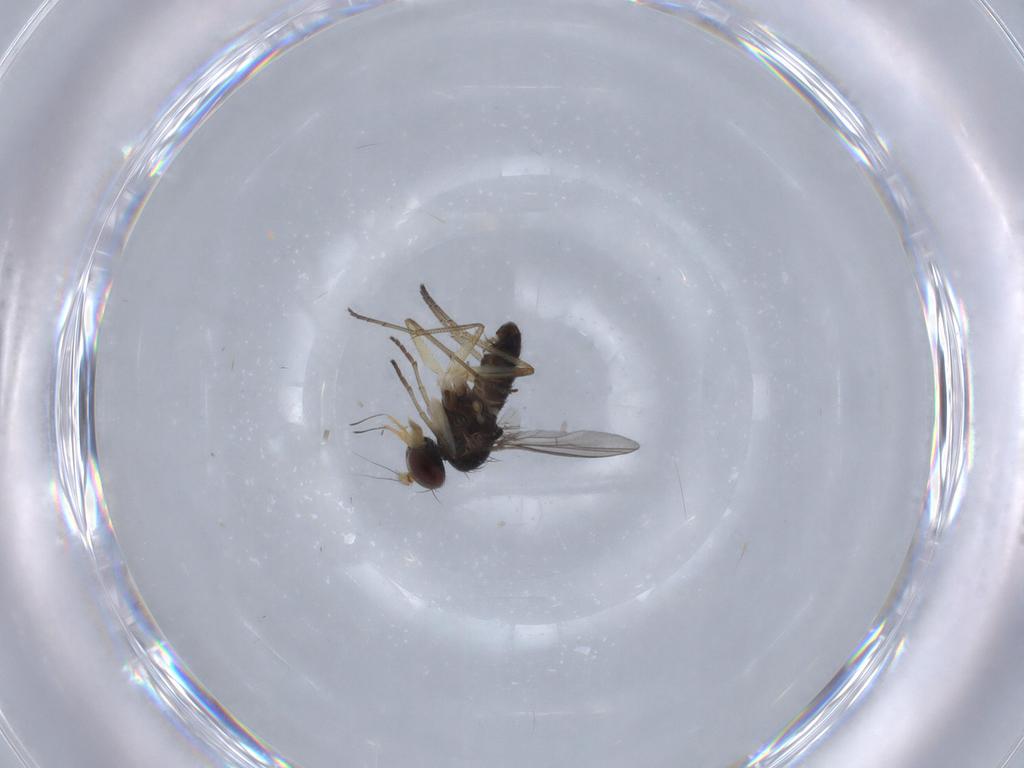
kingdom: Animalia
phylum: Arthropoda
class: Insecta
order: Diptera
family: Dolichopodidae
